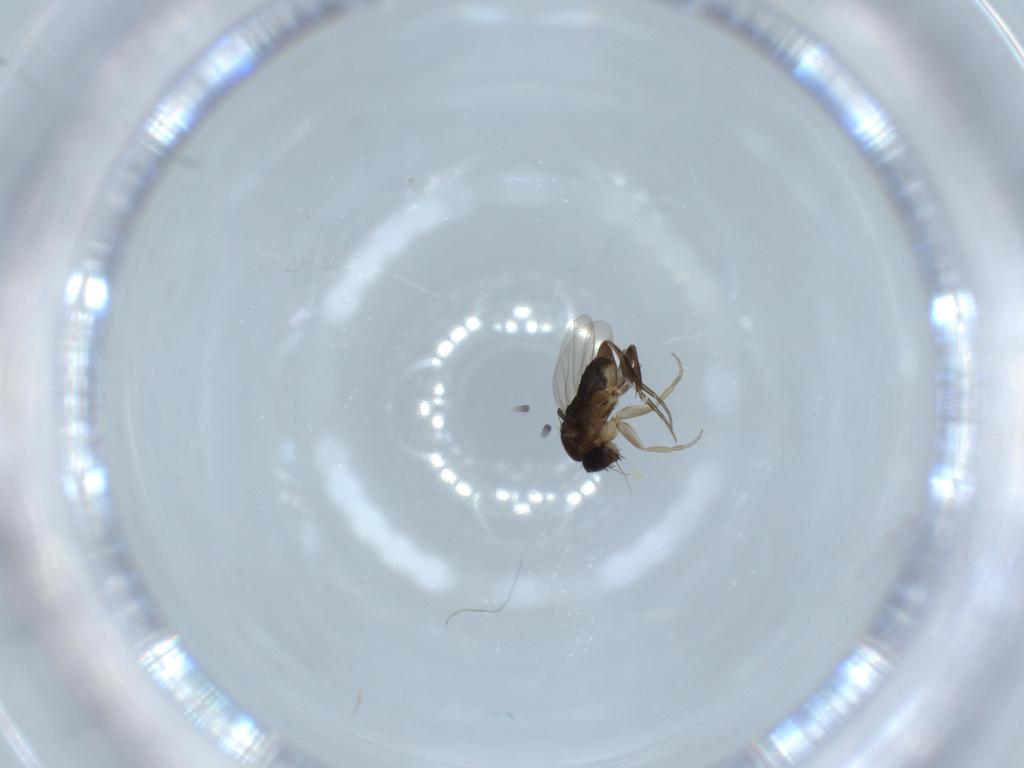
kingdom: Animalia
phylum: Arthropoda
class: Insecta
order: Diptera
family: Phoridae
